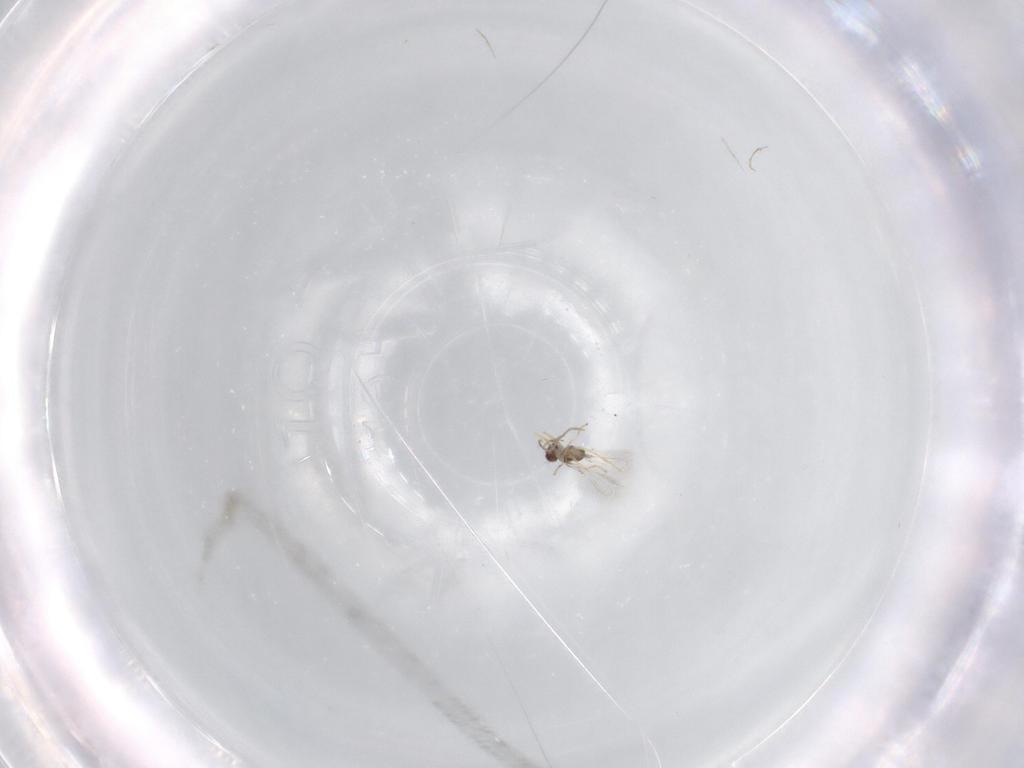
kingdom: Animalia
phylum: Arthropoda
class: Insecta
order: Hymenoptera
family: Mymaridae
